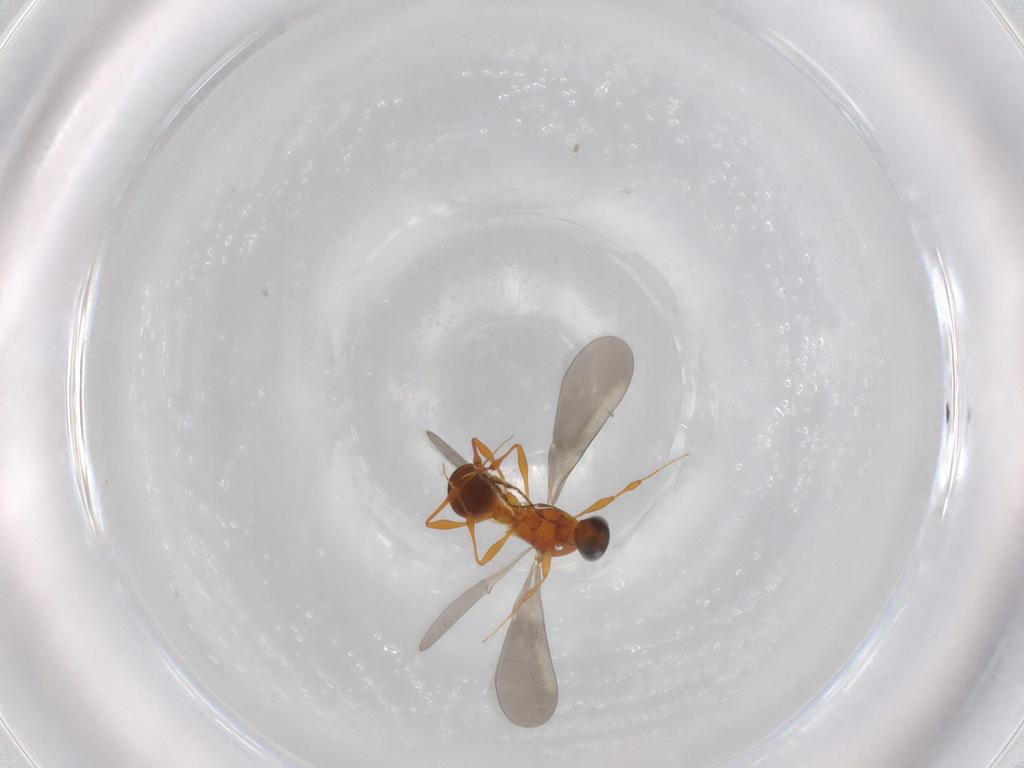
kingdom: Animalia
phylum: Arthropoda
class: Insecta
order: Hymenoptera
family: Platygastridae
